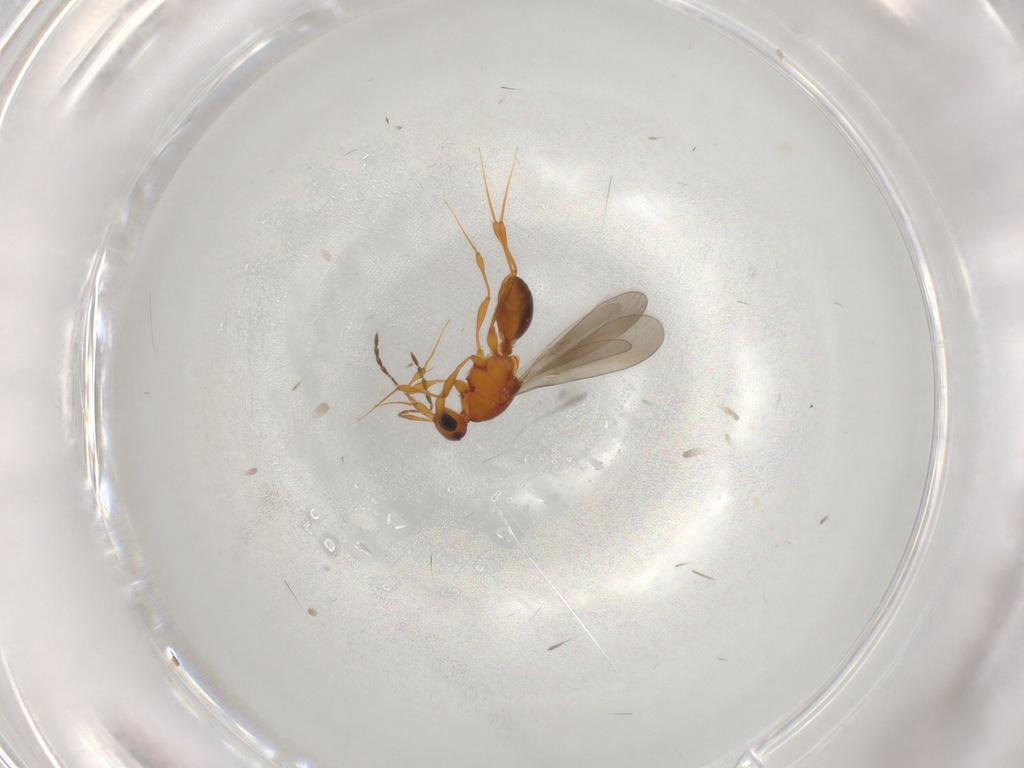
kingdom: Animalia
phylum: Arthropoda
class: Insecta
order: Hymenoptera
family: Platygastridae
